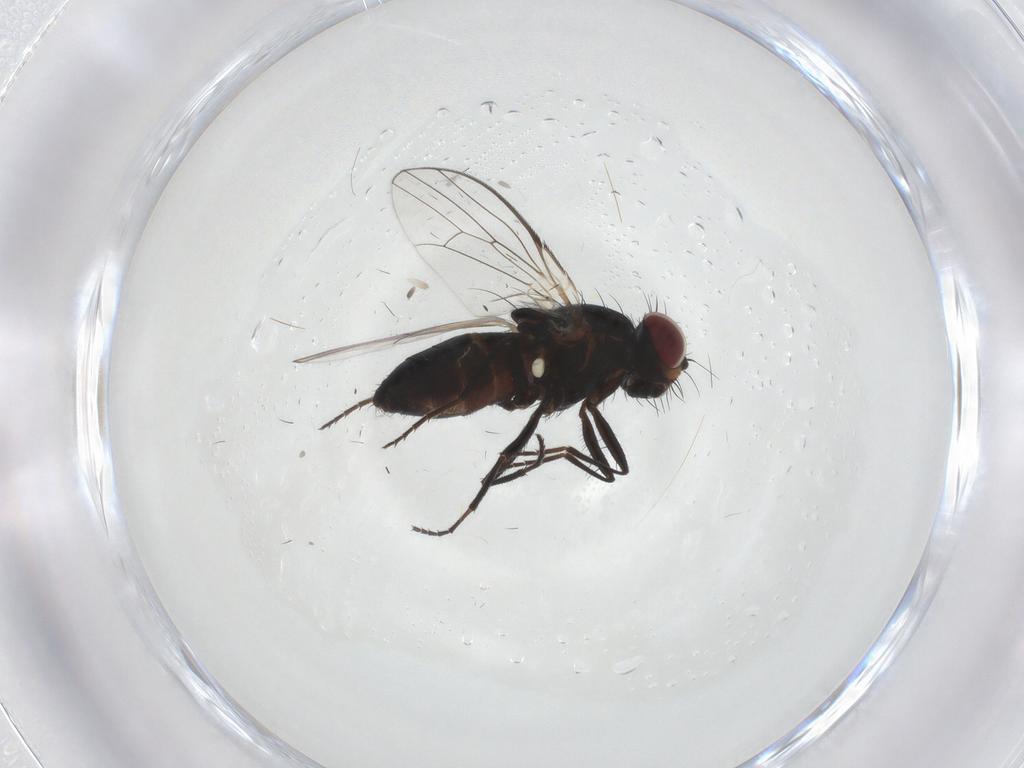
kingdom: Animalia
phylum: Arthropoda
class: Insecta
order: Diptera
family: Carnidae
